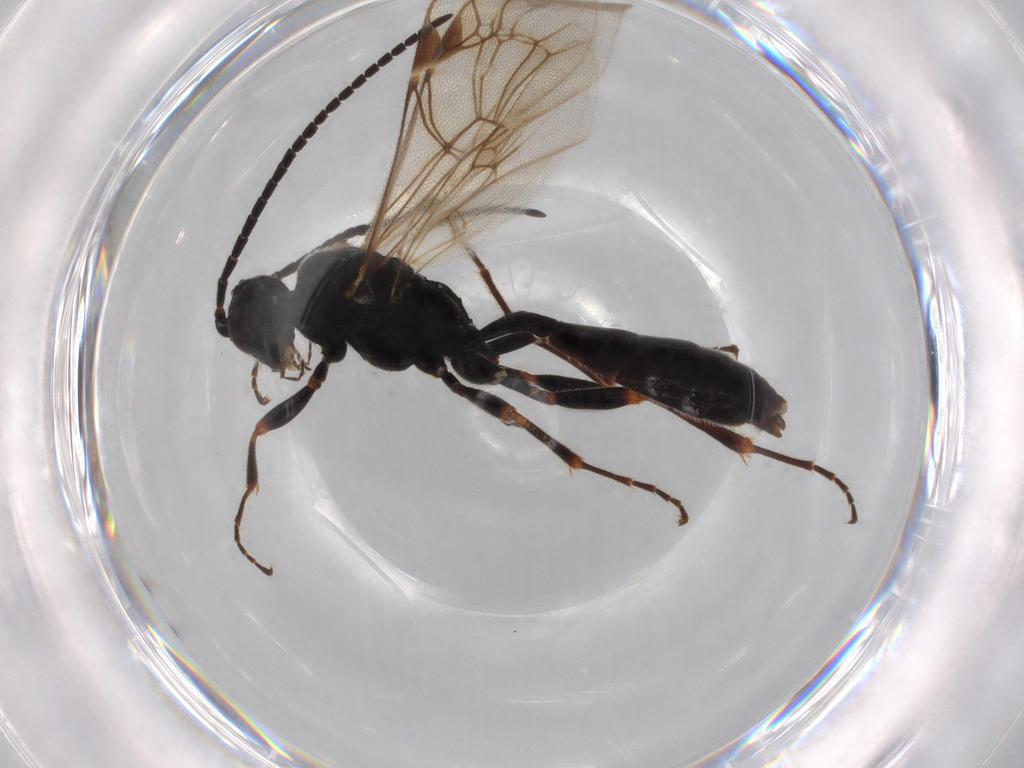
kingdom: Animalia
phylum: Arthropoda
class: Insecta
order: Hymenoptera
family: Ichneumonidae
